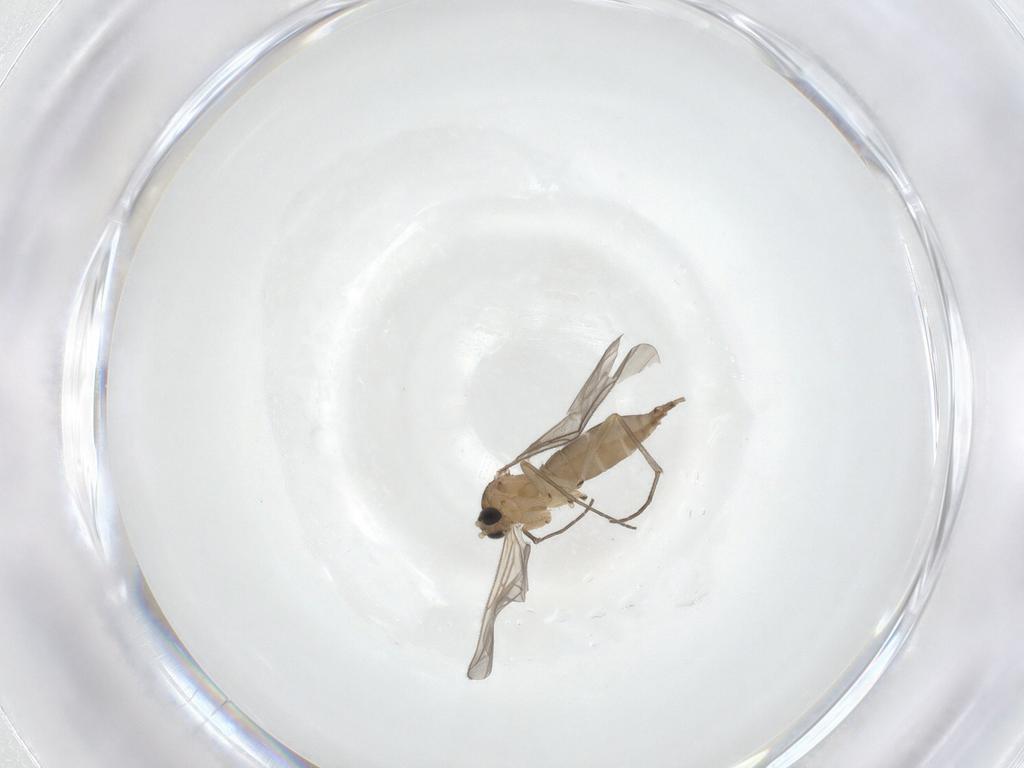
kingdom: Animalia
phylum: Arthropoda
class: Insecta
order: Diptera
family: Sciaridae
